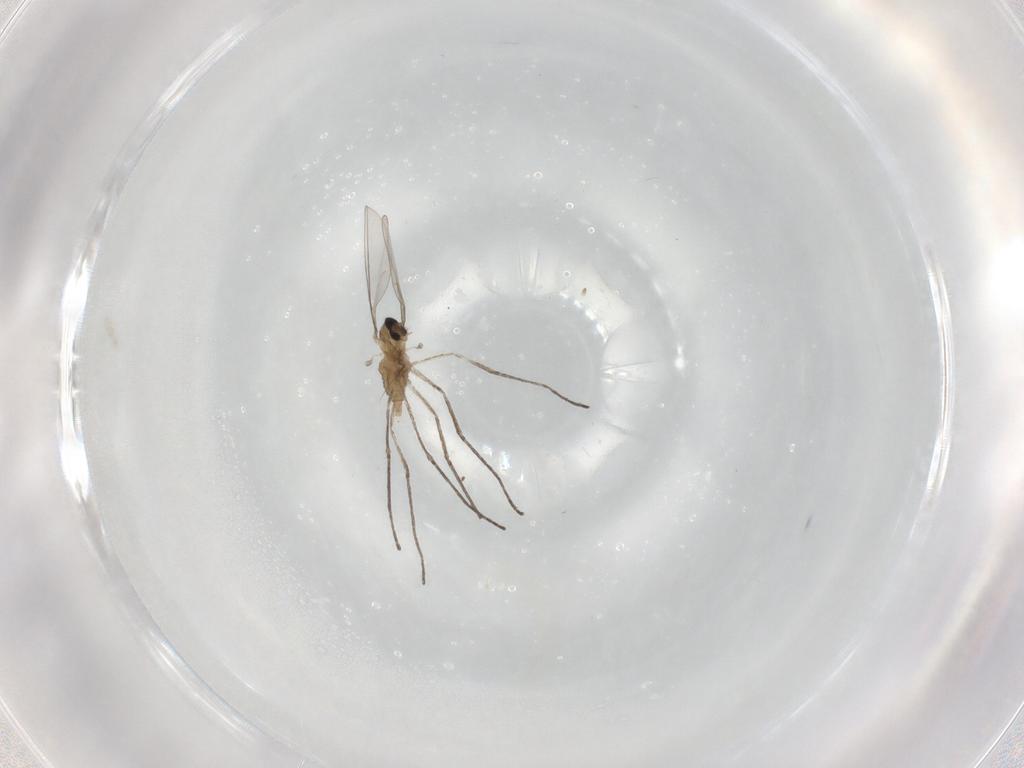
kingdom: Animalia
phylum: Arthropoda
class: Insecta
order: Diptera
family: Cecidomyiidae
